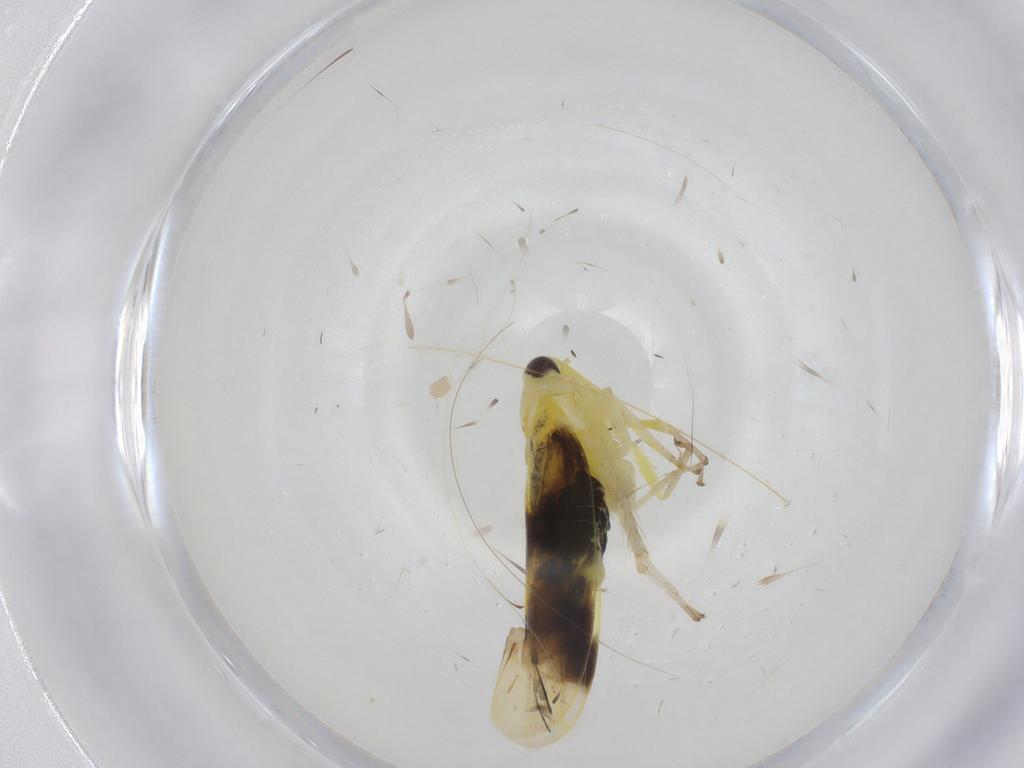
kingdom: Animalia
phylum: Arthropoda
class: Insecta
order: Hemiptera
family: Cicadellidae
